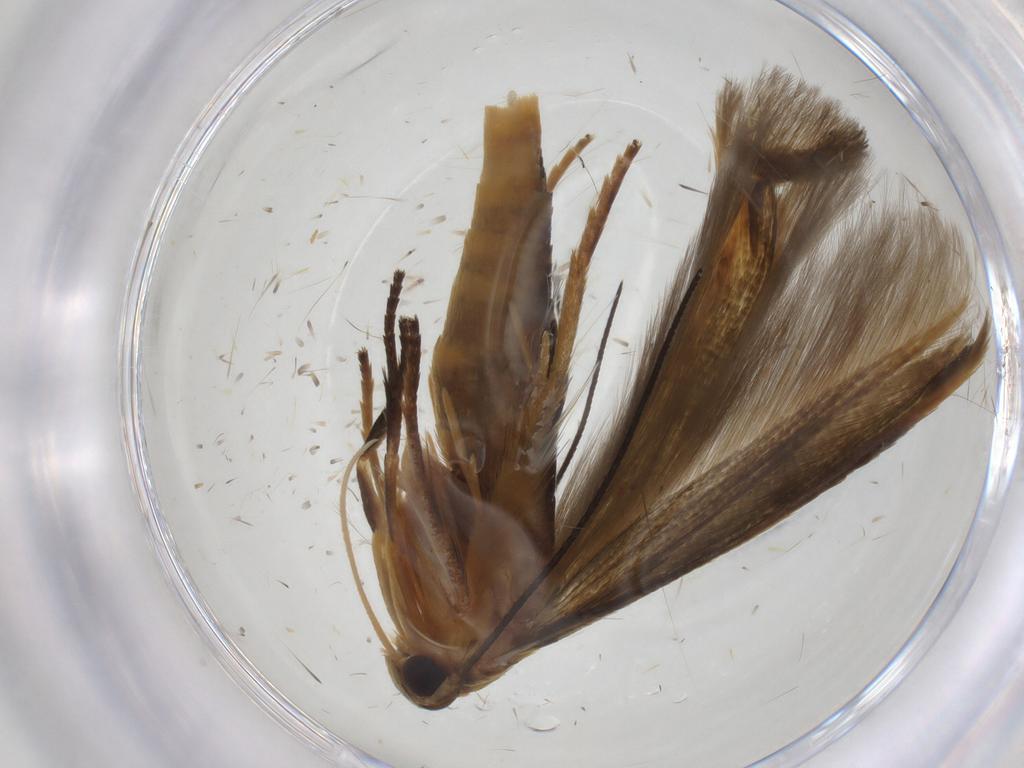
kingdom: Animalia
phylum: Arthropoda
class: Insecta
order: Lepidoptera
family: Stathmopodidae
